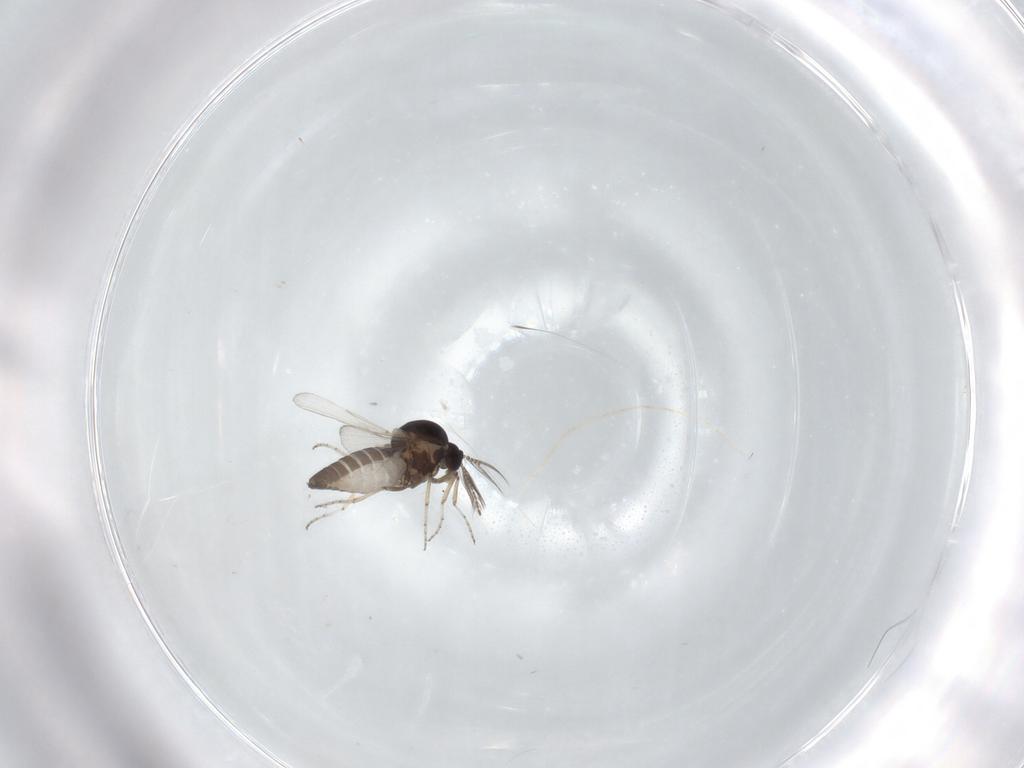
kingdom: Animalia
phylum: Arthropoda
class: Insecta
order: Diptera
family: Ceratopogonidae
